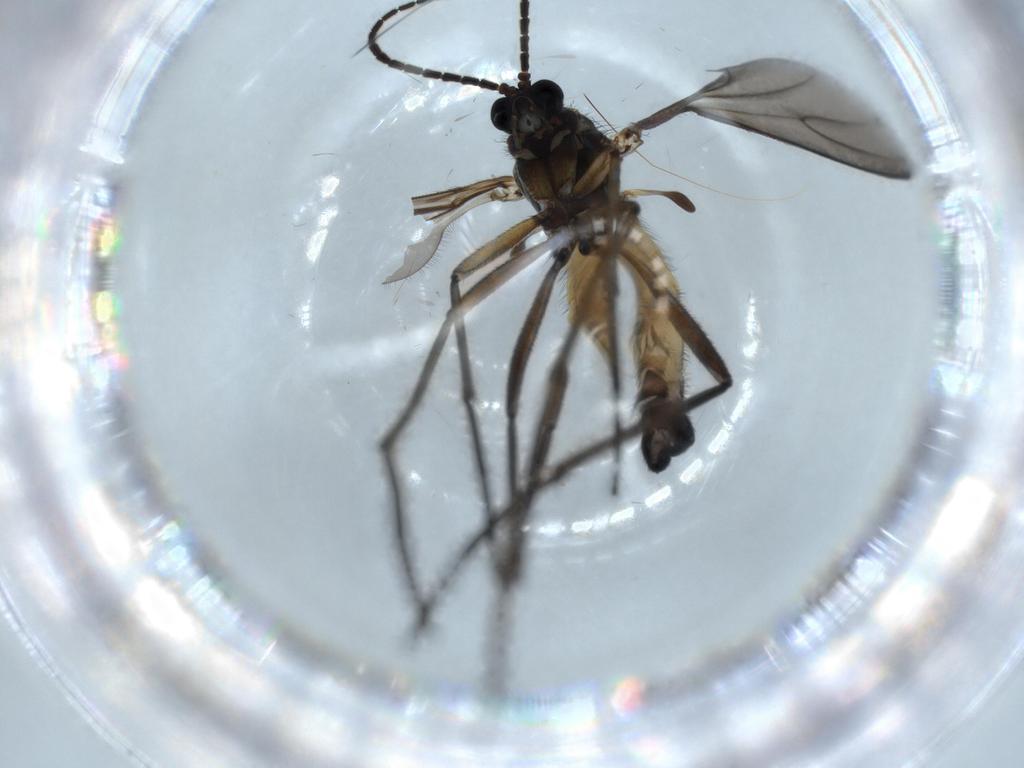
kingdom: Animalia
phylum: Arthropoda
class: Insecta
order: Diptera
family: Sciaridae
